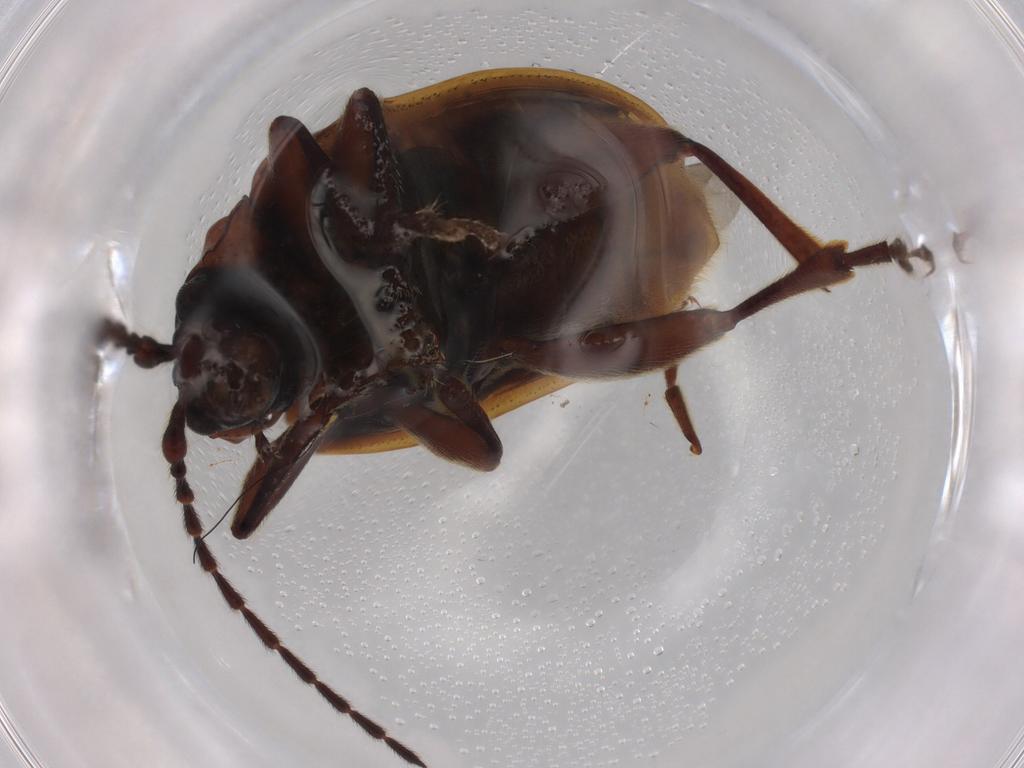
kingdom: Animalia
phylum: Arthropoda
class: Insecta
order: Coleoptera
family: Chrysomelidae
